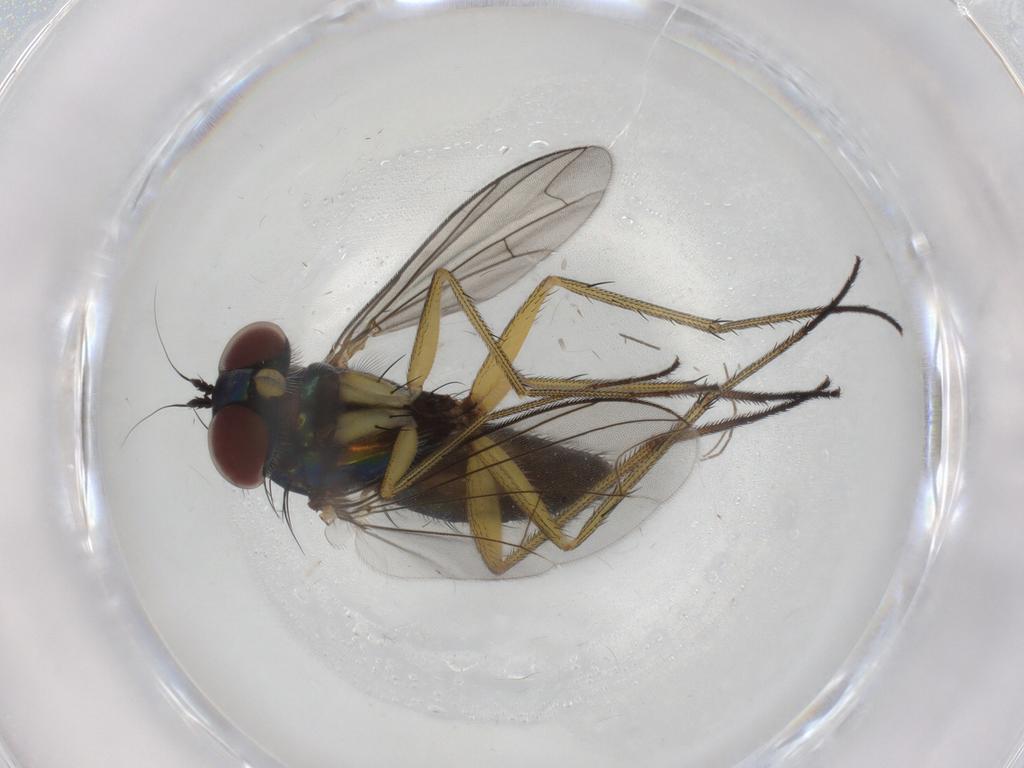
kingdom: Animalia
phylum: Arthropoda
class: Insecta
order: Diptera
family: Dolichopodidae
